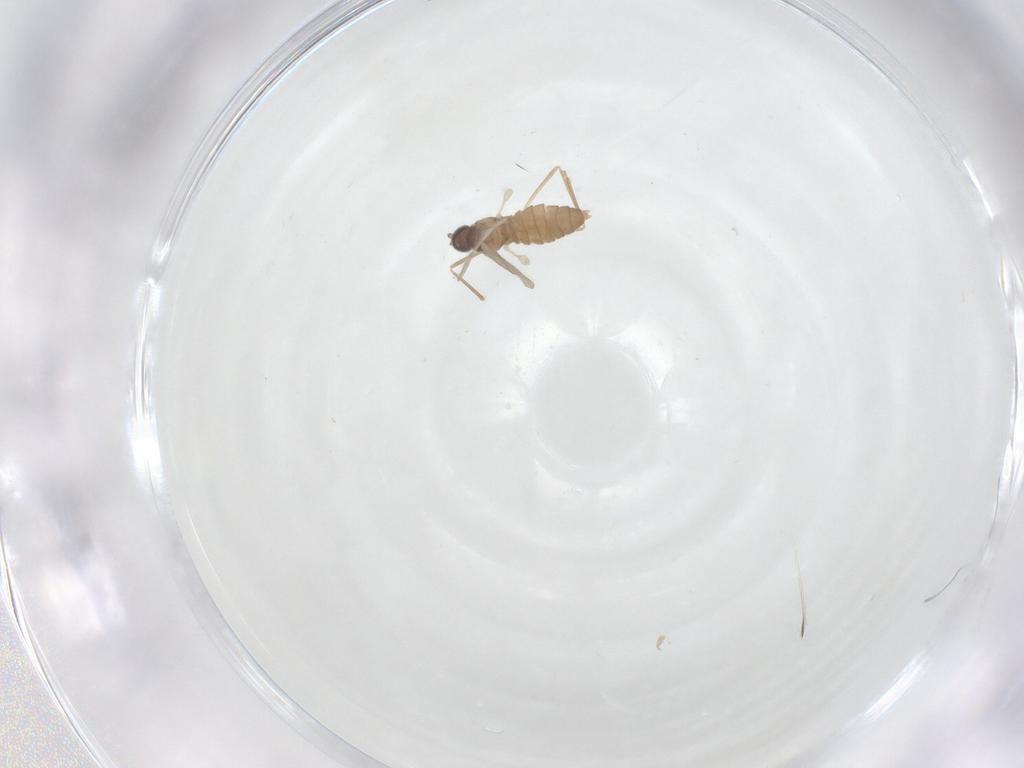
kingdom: Animalia
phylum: Arthropoda
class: Insecta
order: Diptera
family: Cecidomyiidae
